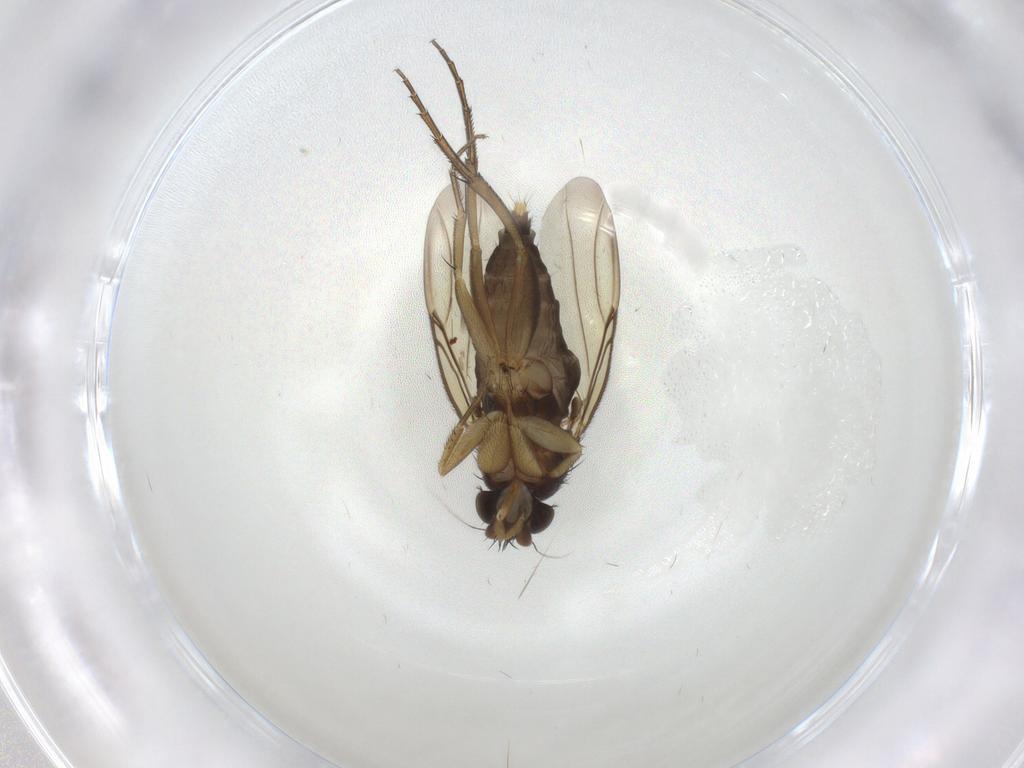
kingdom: Animalia
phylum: Arthropoda
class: Insecta
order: Diptera
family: Phoridae
